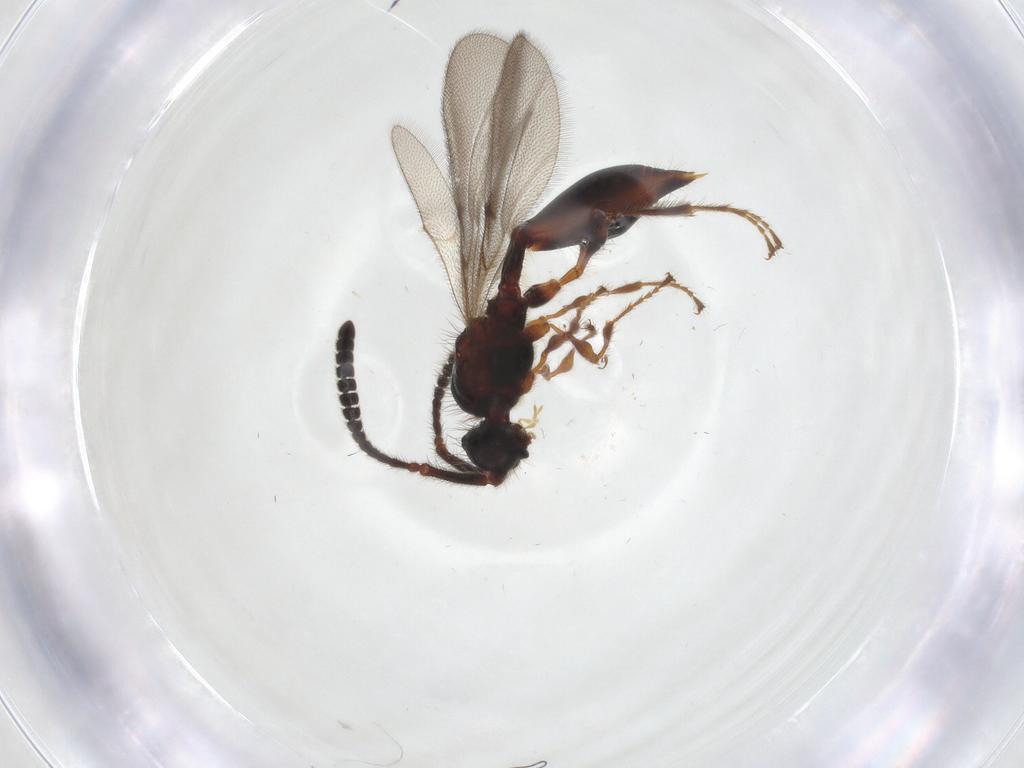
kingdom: Animalia
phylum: Arthropoda
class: Insecta
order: Hymenoptera
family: Diapriidae
